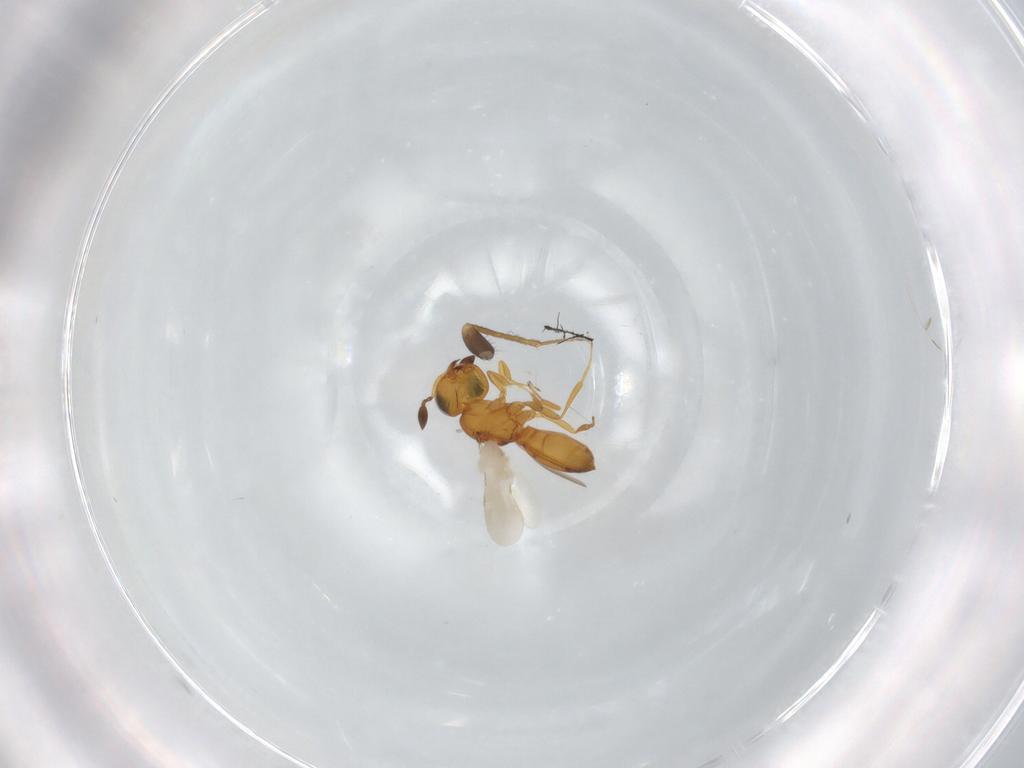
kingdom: Animalia
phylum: Arthropoda
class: Insecta
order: Hymenoptera
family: Scelionidae
